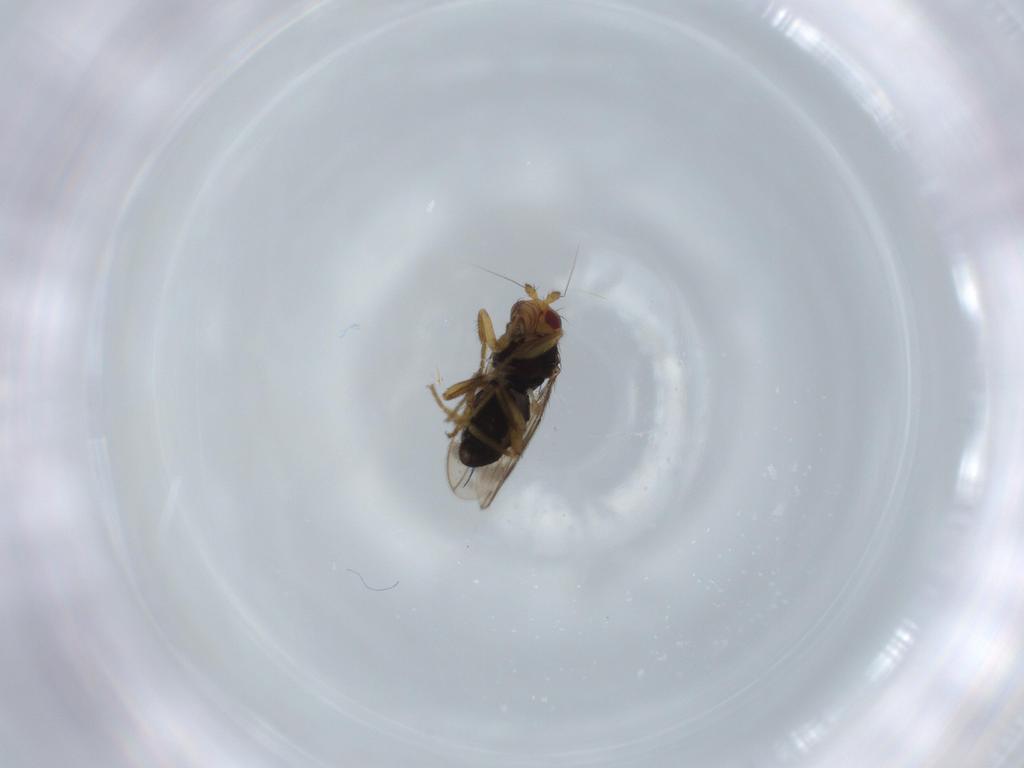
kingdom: Animalia
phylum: Arthropoda
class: Insecta
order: Diptera
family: Sphaeroceridae
